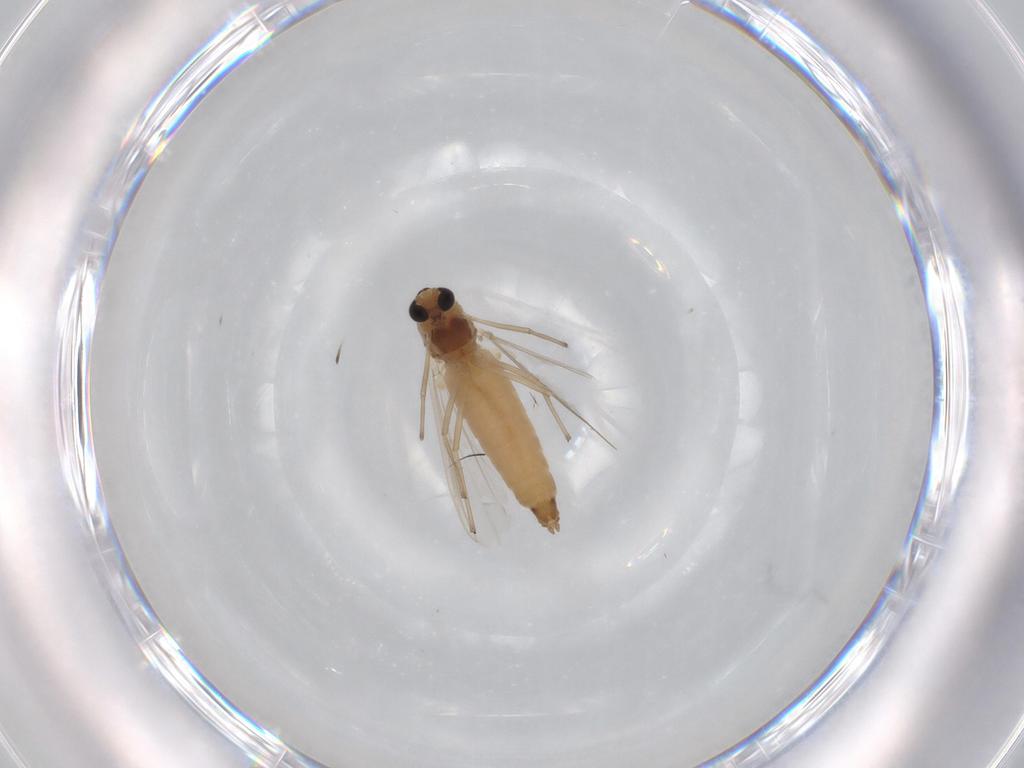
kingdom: Animalia
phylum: Arthropoda
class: Insecta
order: Diptera
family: Chironomidae
